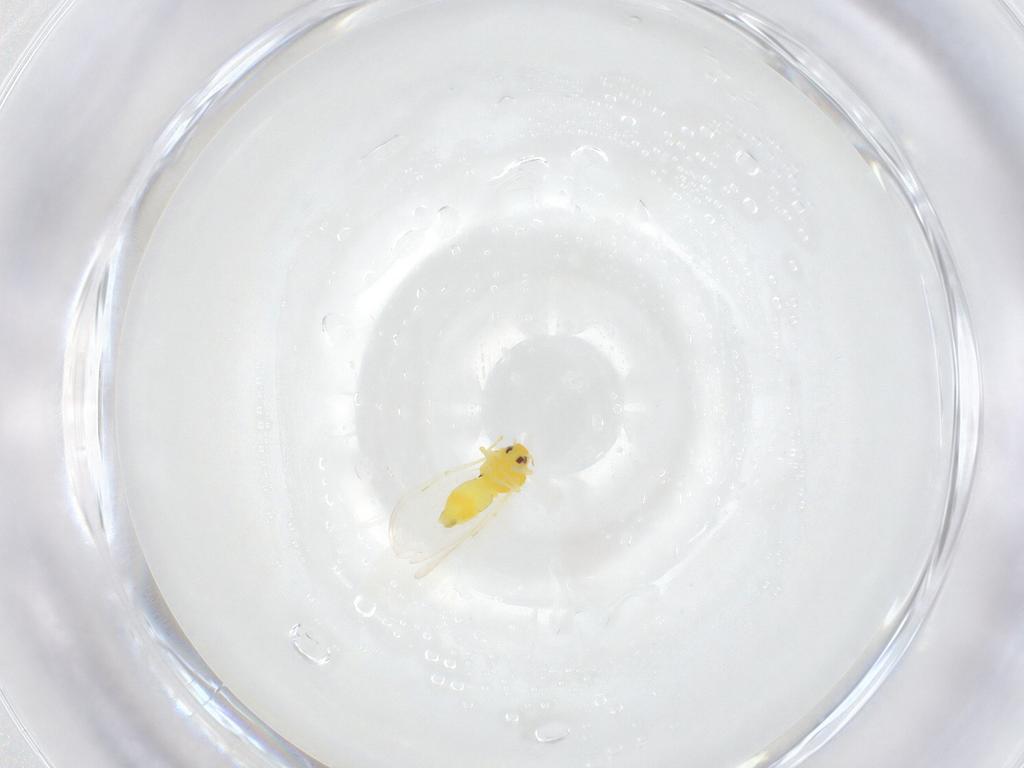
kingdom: Animalia
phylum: Arthropoda
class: Insecta
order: Hemiptera
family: Aleyrodidae
